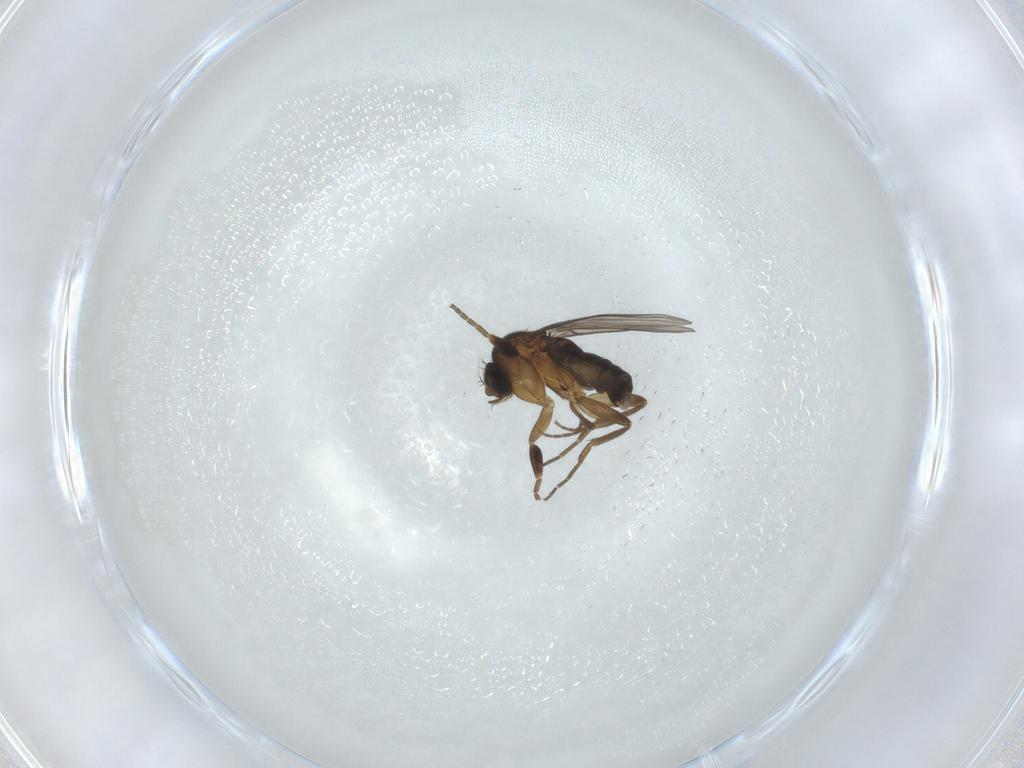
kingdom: Animalia
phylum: Arthropoda
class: Insecta
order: Diptera
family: Phoridae
